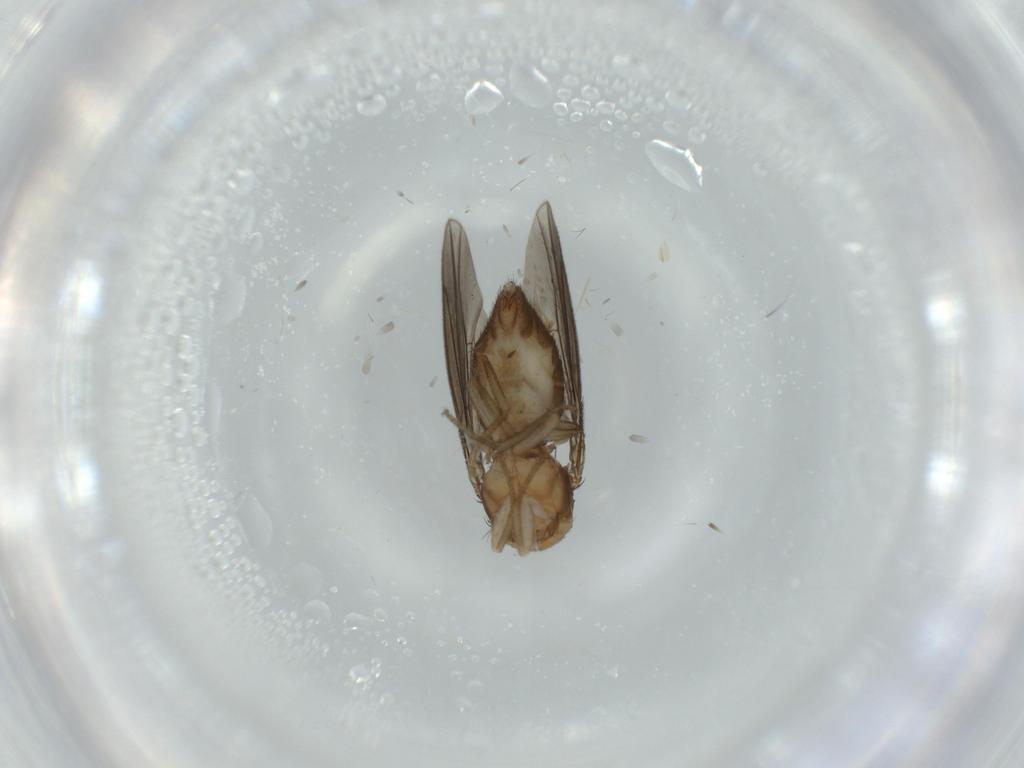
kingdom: Animalia
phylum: Arthropoda
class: Insecta
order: Diptera
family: Drosophilidae
